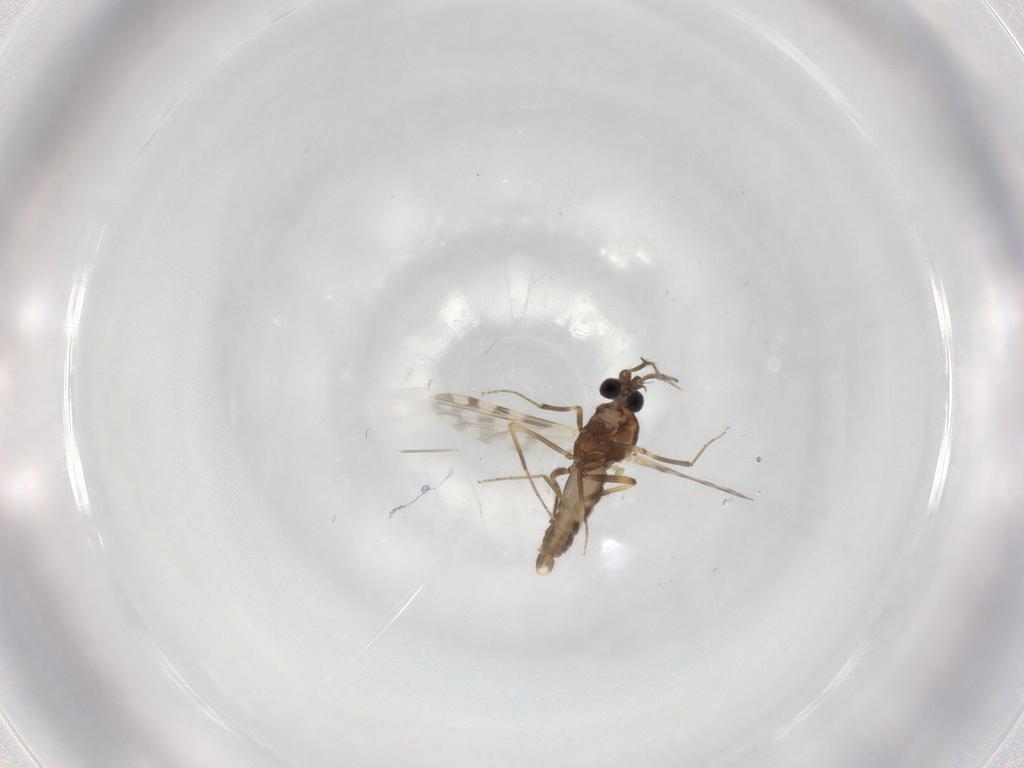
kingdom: Animalia
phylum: Arthropoda
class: Insecta
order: Diptera
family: Ceratopogonidae
